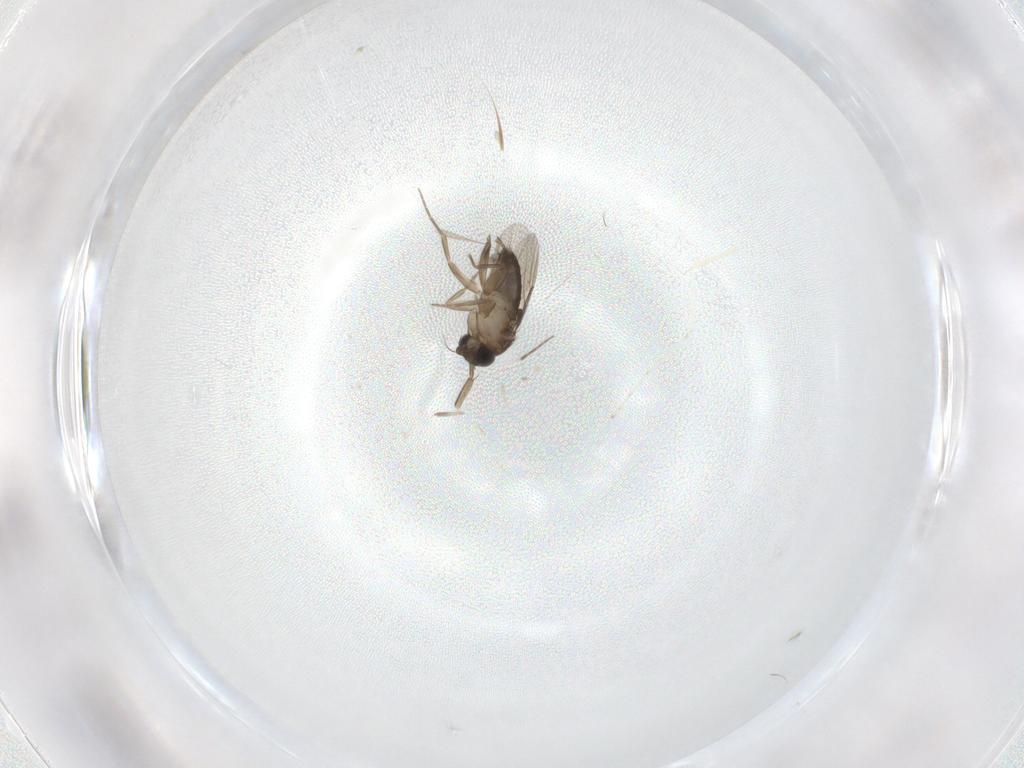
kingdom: Animalia
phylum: Arthropoda
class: Insecta
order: Diptera
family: Phoridae
